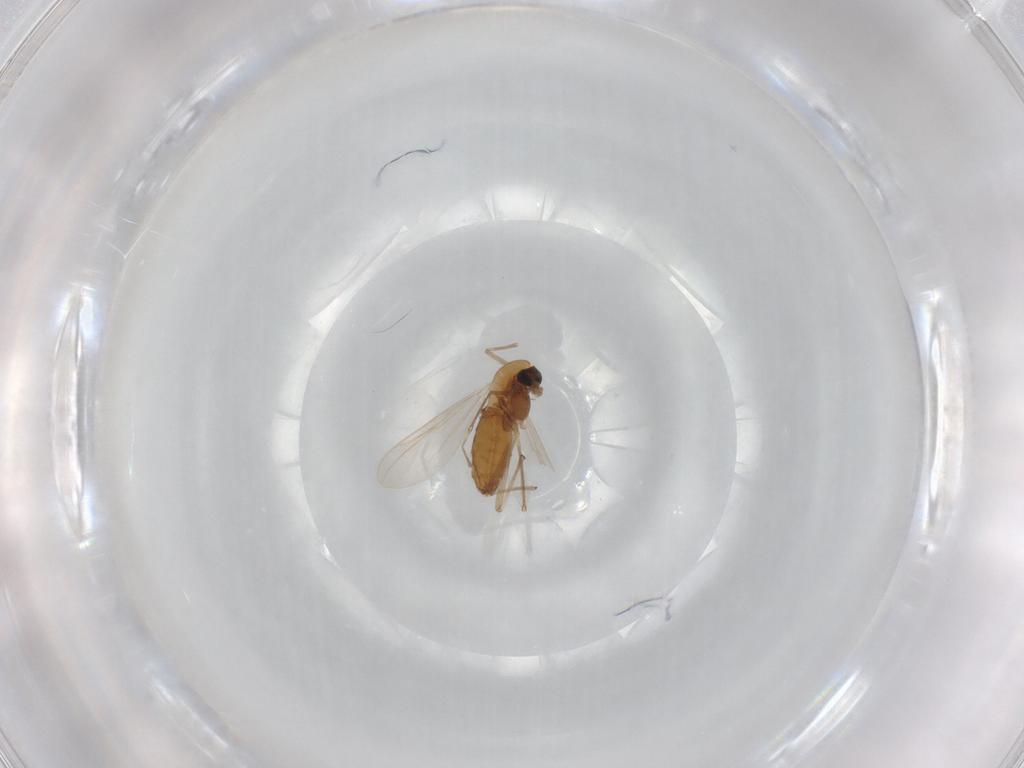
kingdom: Animalia
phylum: Arthropoda
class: Insecta
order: Diptera
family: Chironomidae
